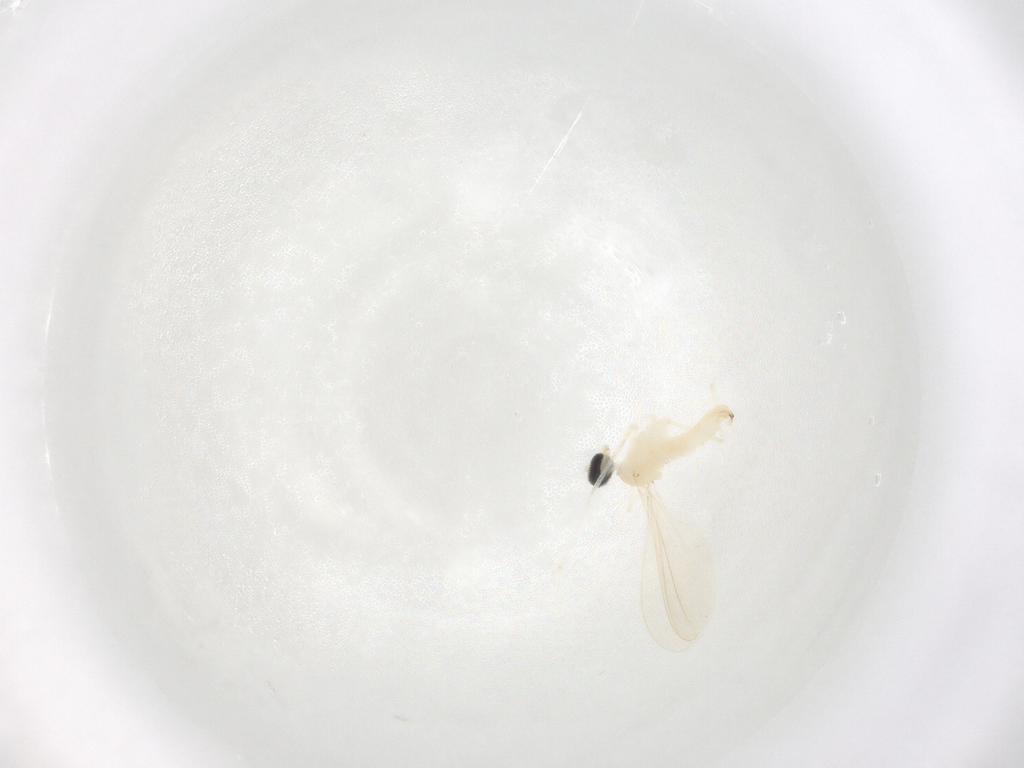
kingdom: Animalia
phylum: Arthropoda
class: Insecta
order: Diptera
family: Cecidomyiidae
